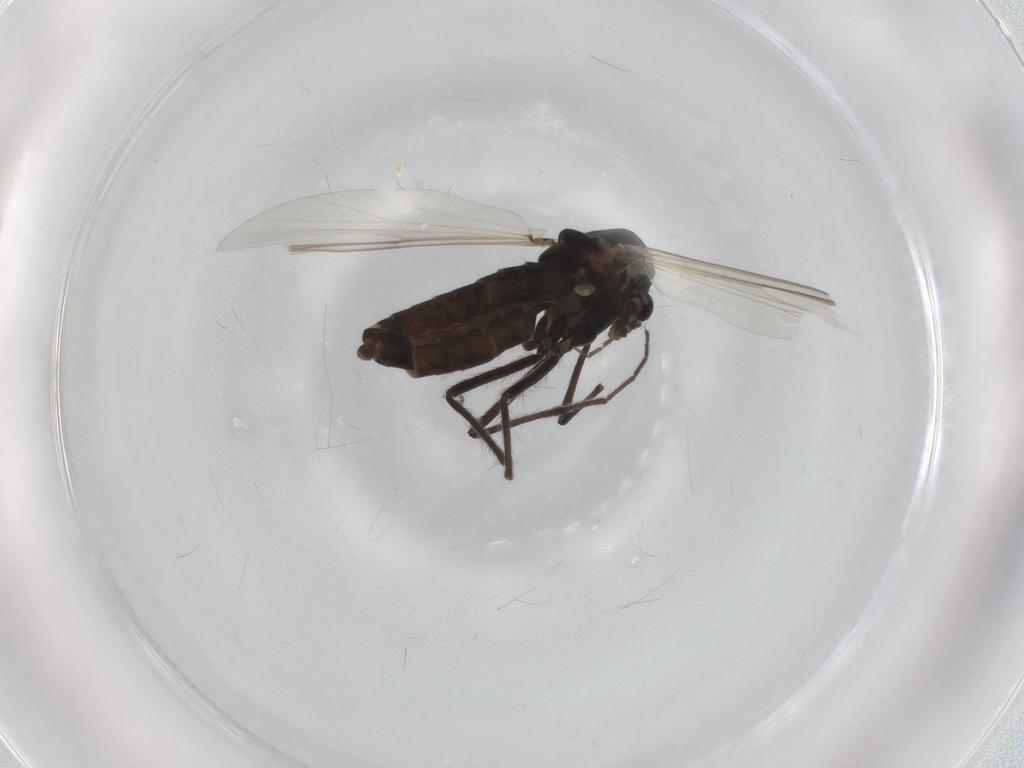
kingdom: Animalia
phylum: Arthropoda
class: Insecta
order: Diptera
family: Chironomidae
